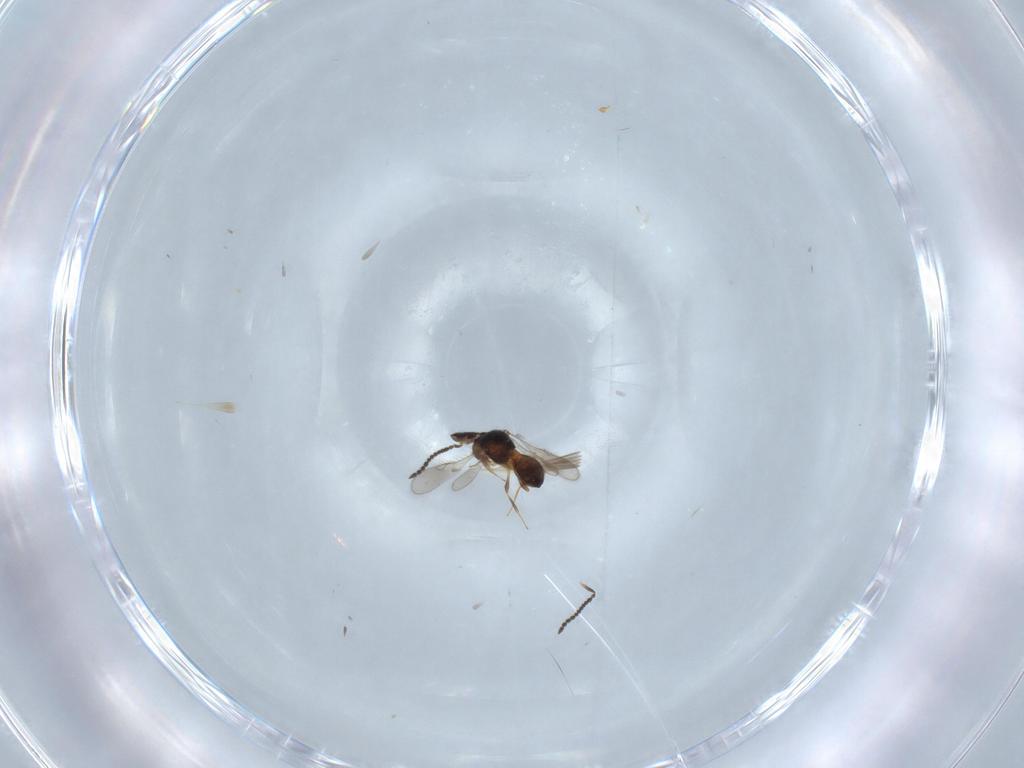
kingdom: Animalia
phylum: Arthropoda
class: Insecta
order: Hymenoptera
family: Scelionidae
